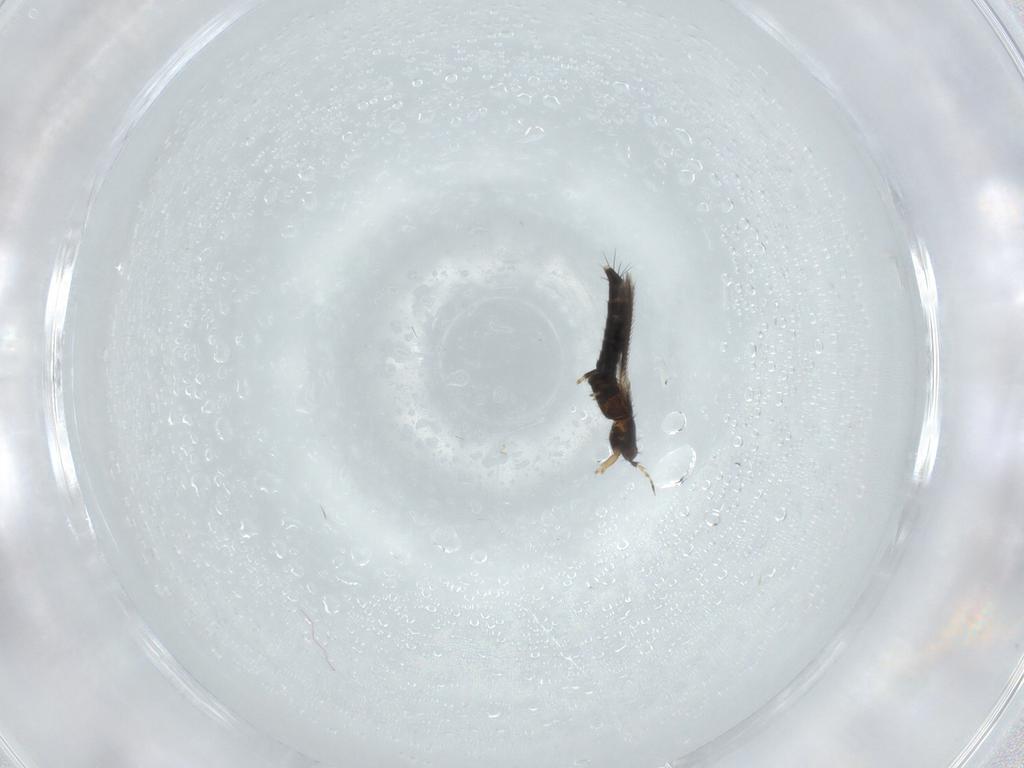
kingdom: Animalia
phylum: Arthropoda
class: Insecta
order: Thysanoptera
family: Thripidae
